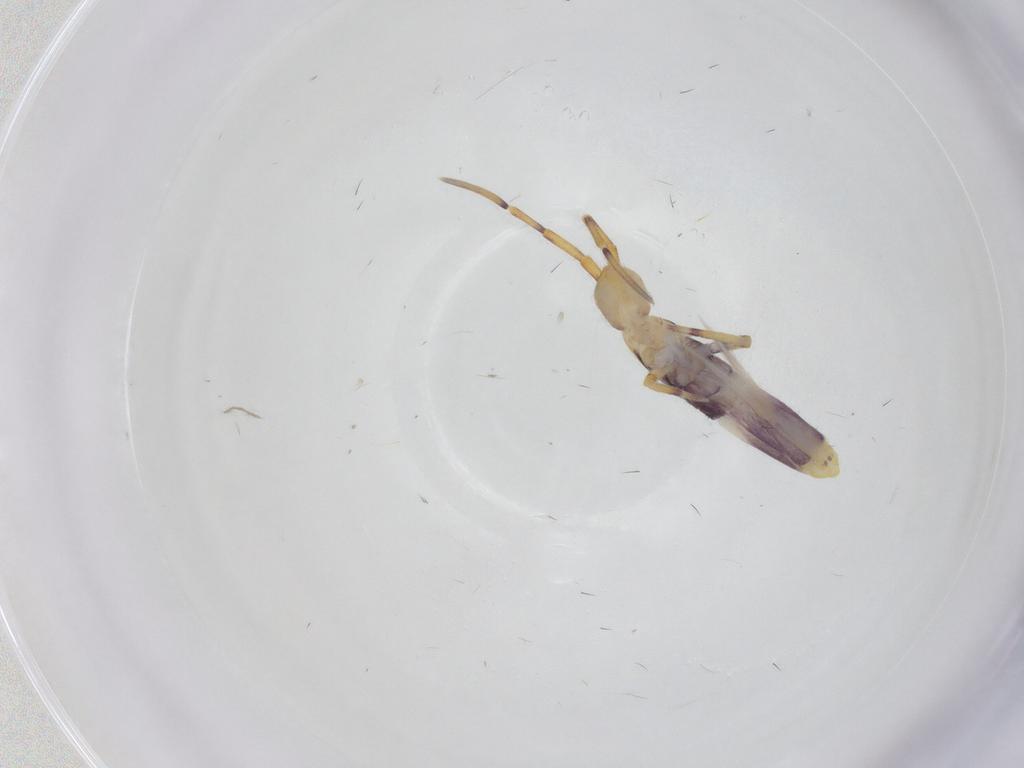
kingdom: Animalia
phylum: Arthropoda
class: Collembola
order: Entomobryomorpha
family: Entomobryidae
